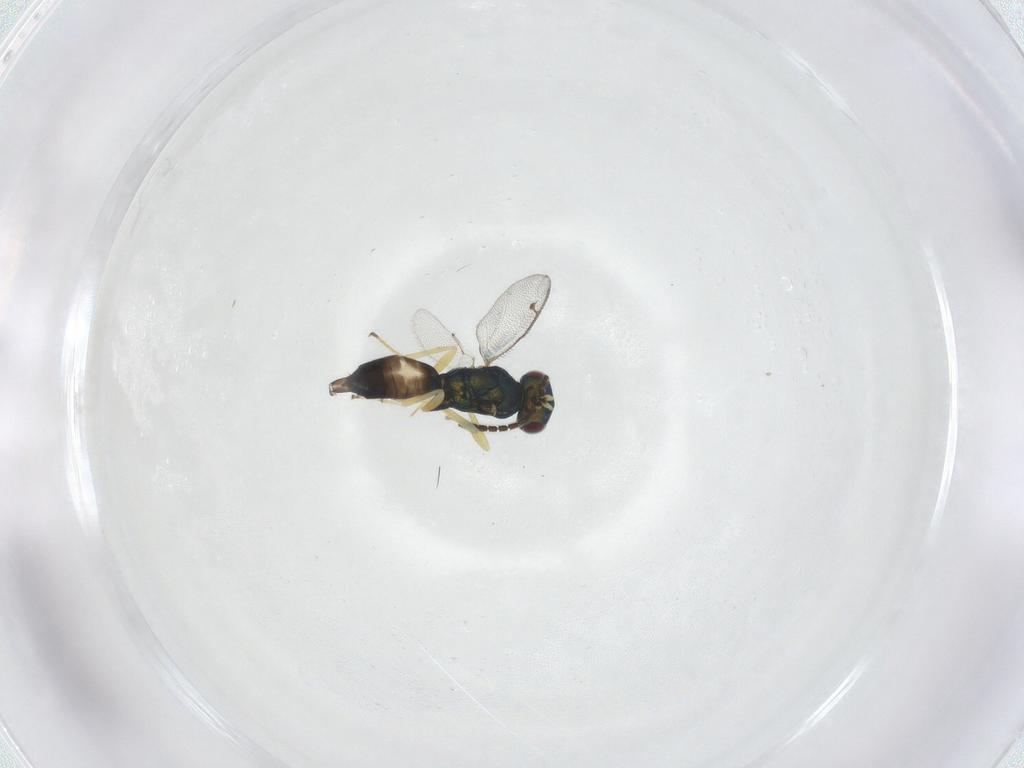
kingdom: Animalia
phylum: Arthropoda
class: Insecta
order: Hymenoptera
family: Pteromalidae
